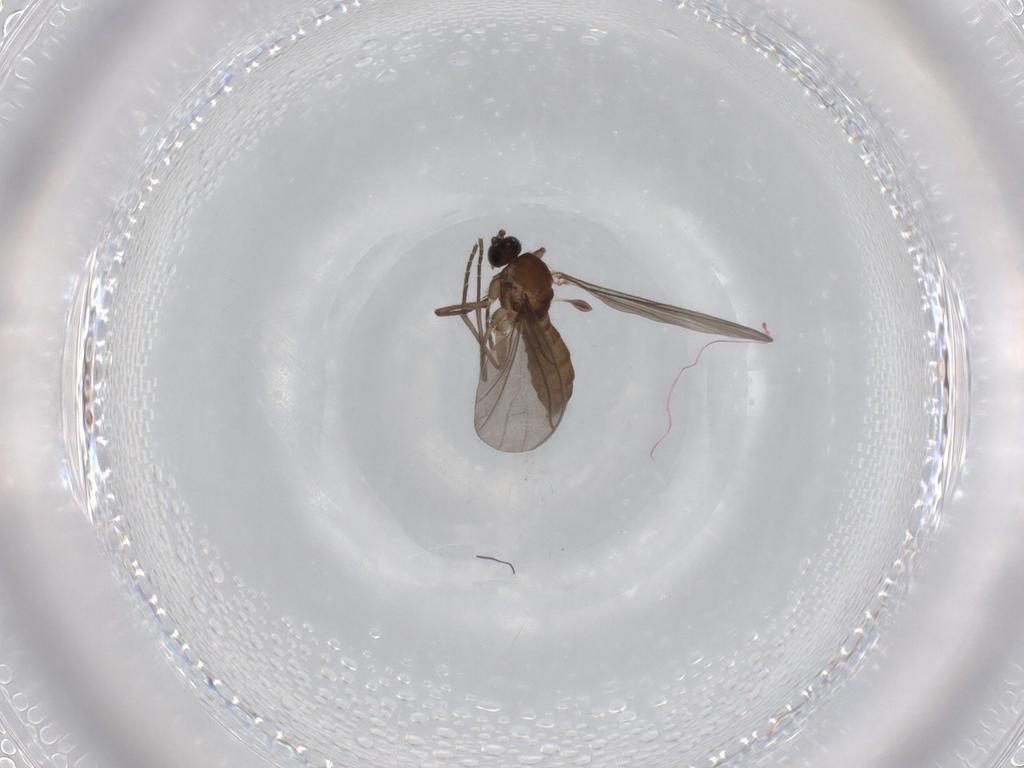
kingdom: Animalia
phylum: Arthropoda
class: Insecta
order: Diptera
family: Sciaridae
